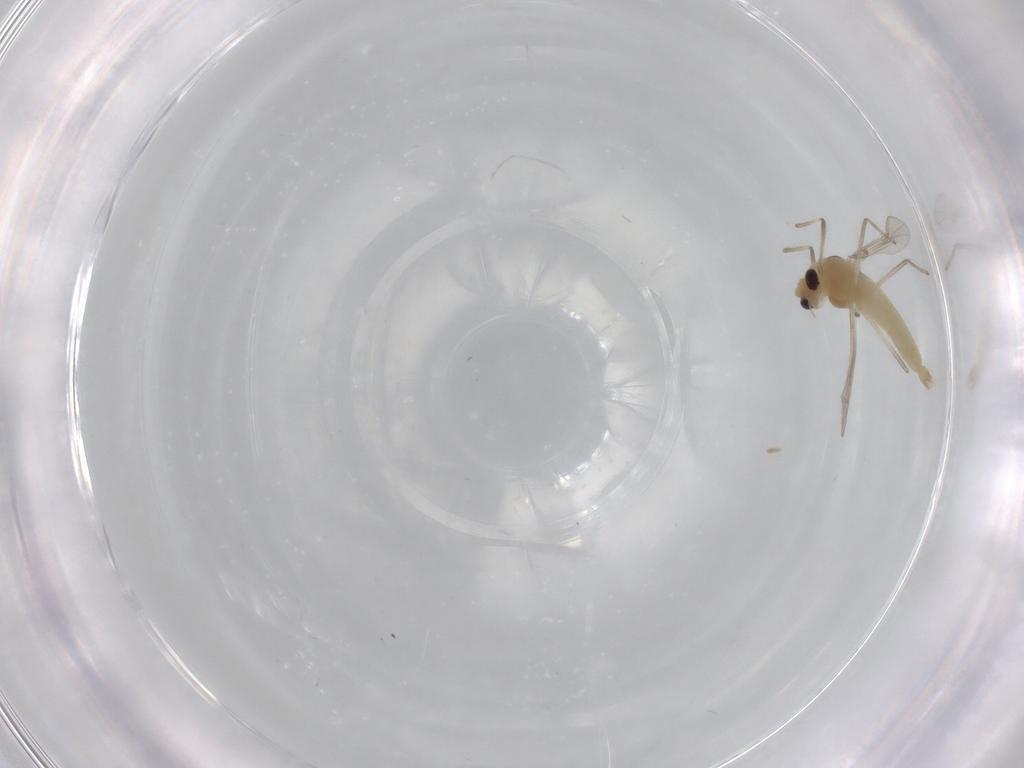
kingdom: Animalia
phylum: Arthropoda
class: Insecta
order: Diptera
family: Chironomidae
